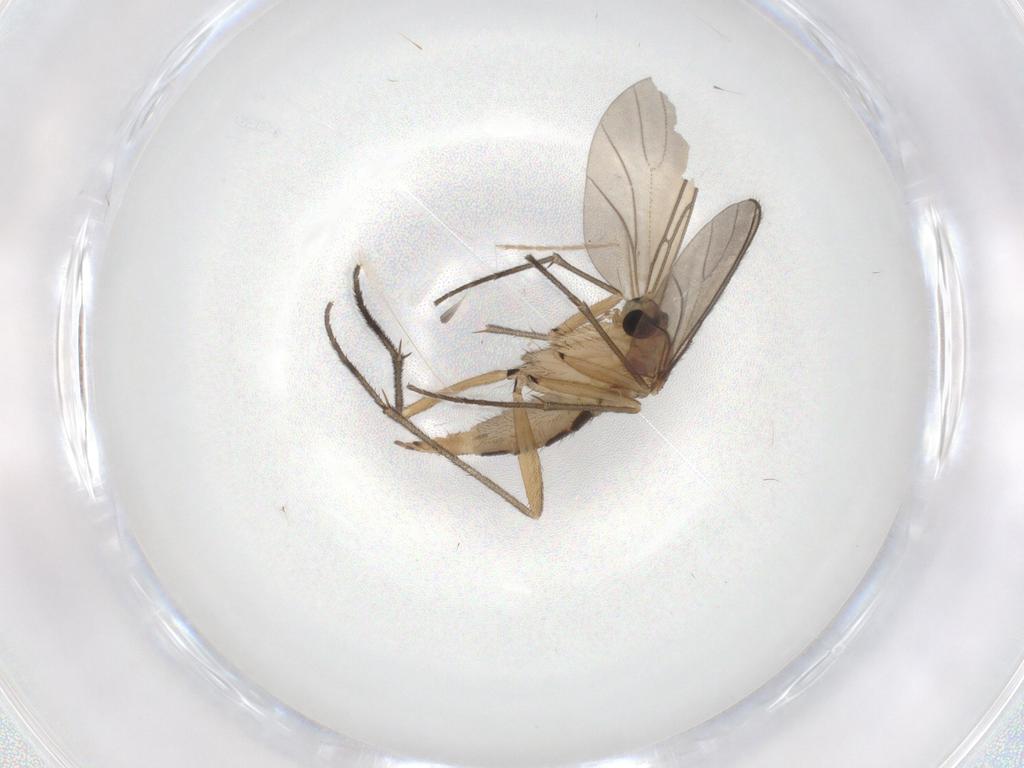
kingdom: Animalia
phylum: Arthropoda
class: Insecta
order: Diptera
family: Sciaridae
